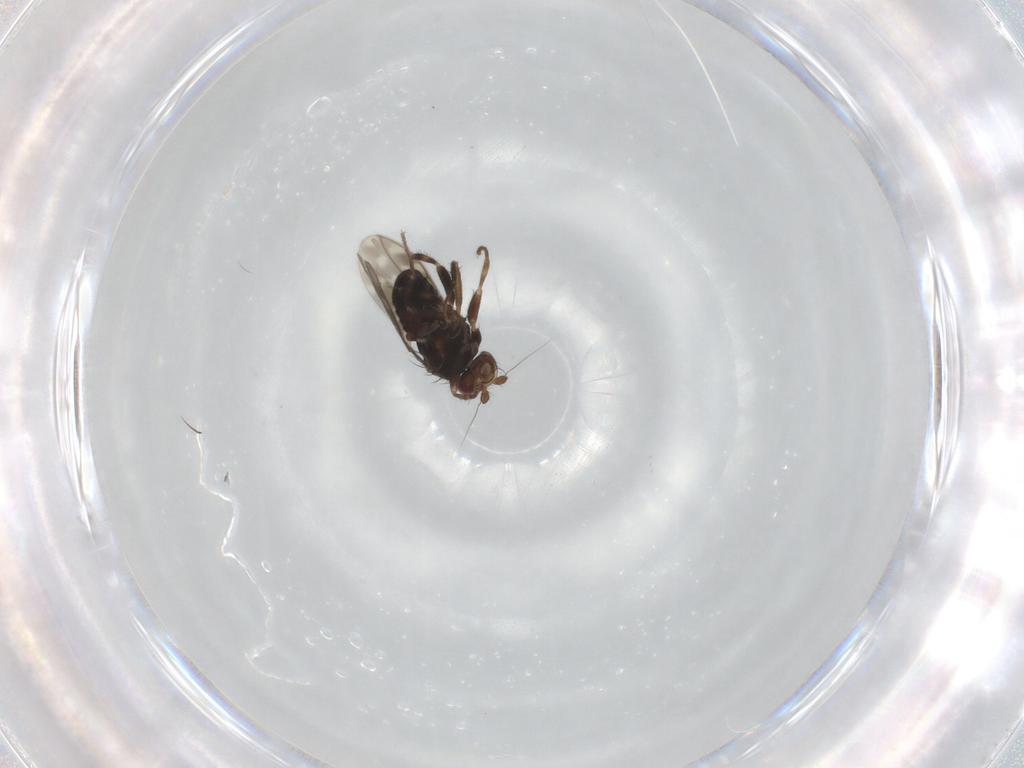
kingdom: Animalia
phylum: Arthropoda
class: Insecta
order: Diptera
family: Sphaeroceridae
